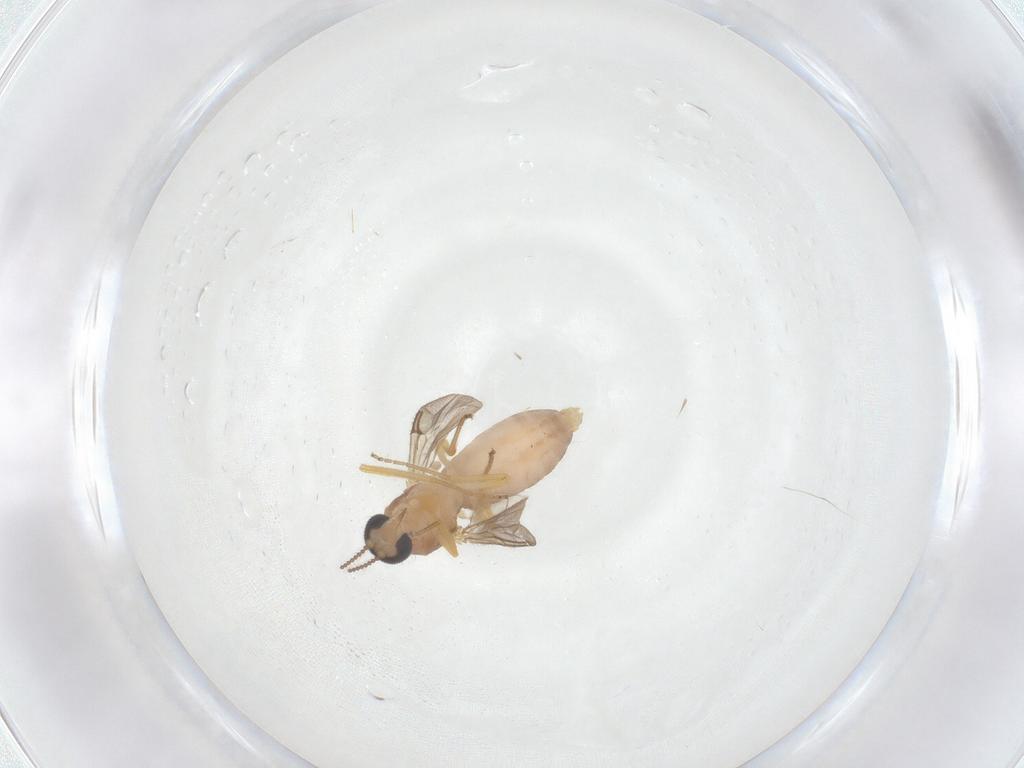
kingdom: Animalia
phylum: Arthropoda
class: Insecta
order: Diptera
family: Ceratopogonidae
